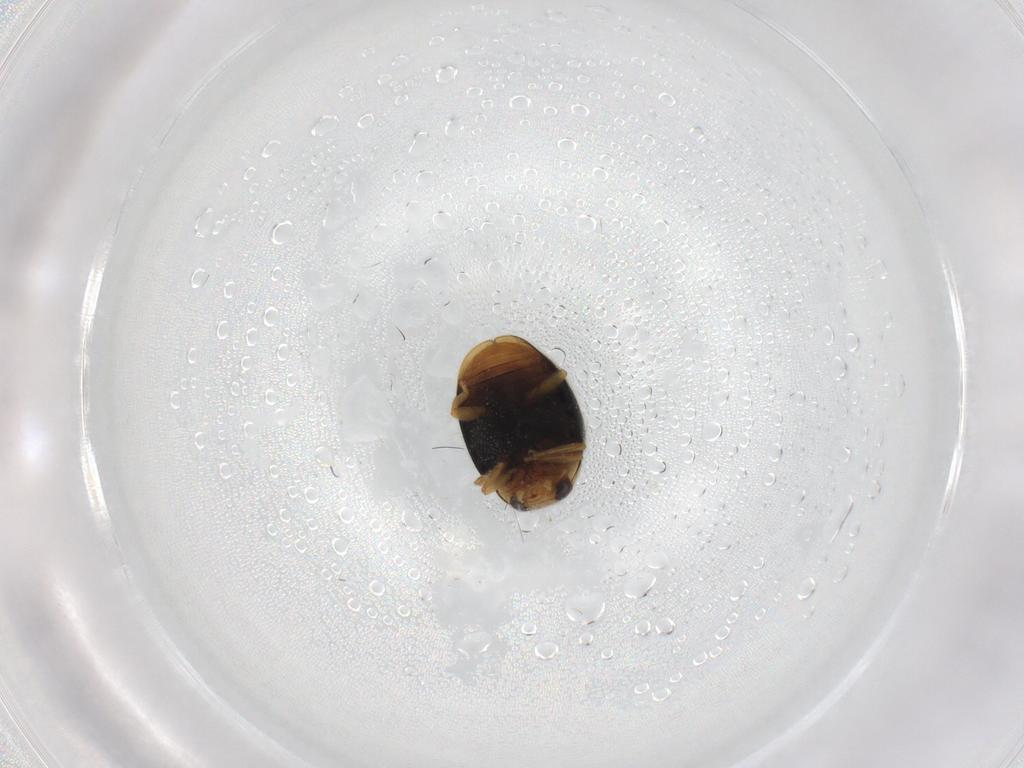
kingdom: Animalia
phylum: Arthropoda
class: Insecta
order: Coleoptera
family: Coccinellidae
